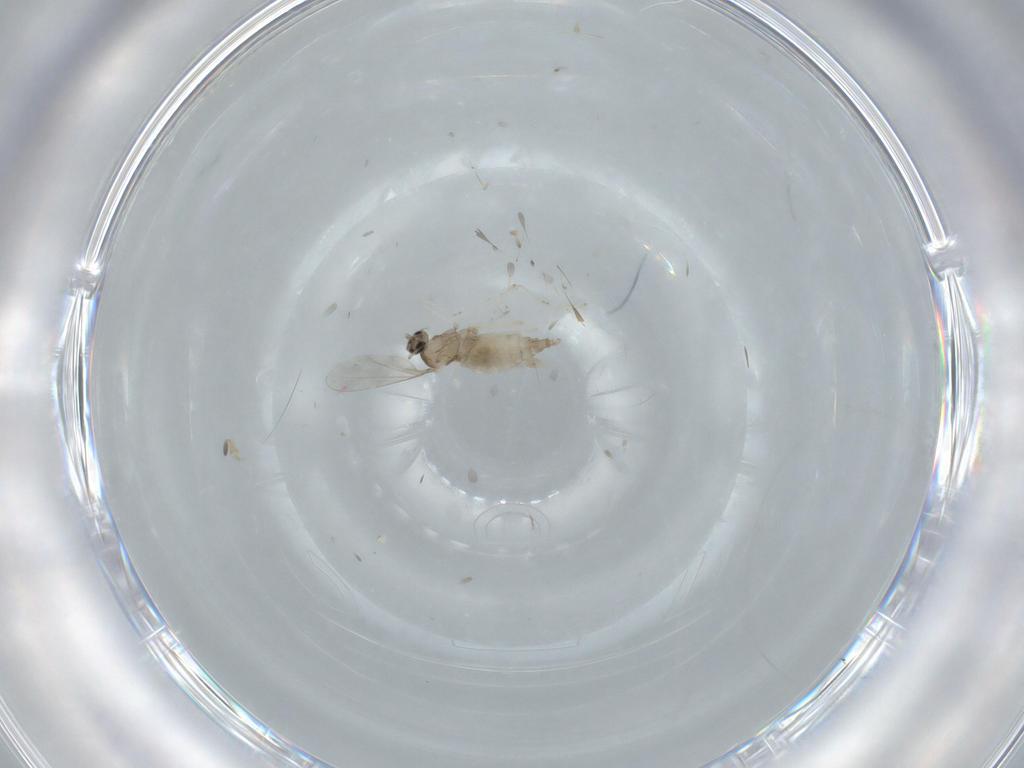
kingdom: Animalia
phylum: Arthropoda
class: Insecta
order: Diptera
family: Cecidomyiidae
